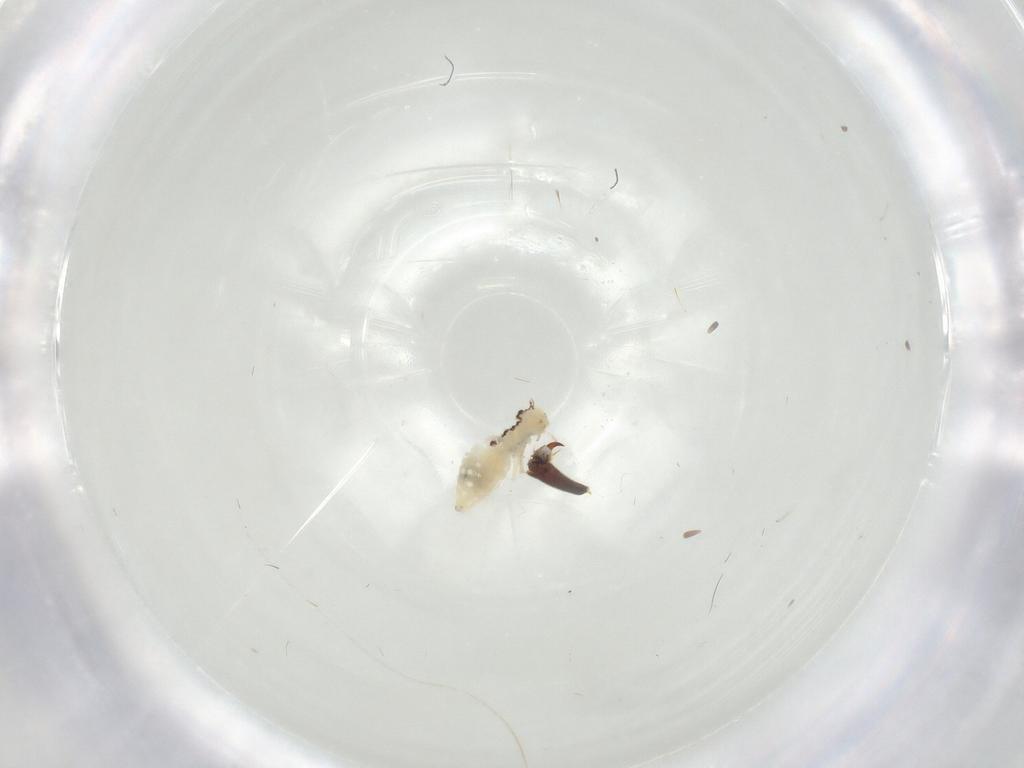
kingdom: Animalia
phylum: Arthropoda
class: Insecta
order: Psocodea
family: Philotarsidae
